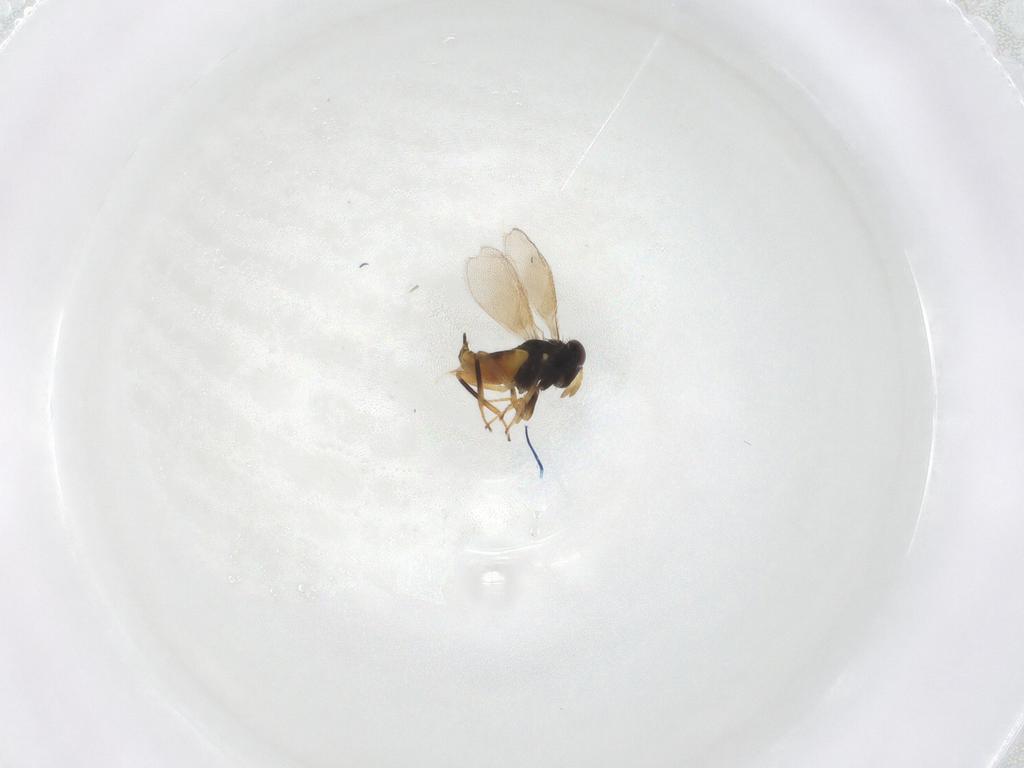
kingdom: Animalia
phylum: Arthropoda
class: Insecta
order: Hymenoptera
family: Aphelinidae
